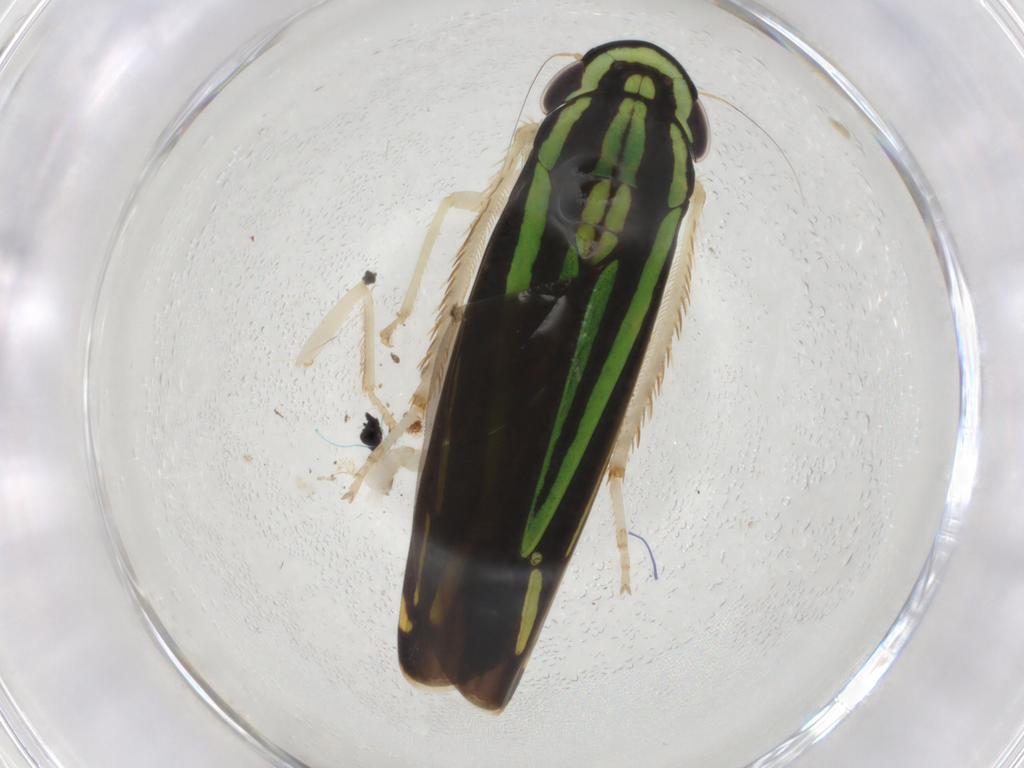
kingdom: Animalia
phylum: Arthropoda
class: Insecta
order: Hemiptera
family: Cicadellidae
